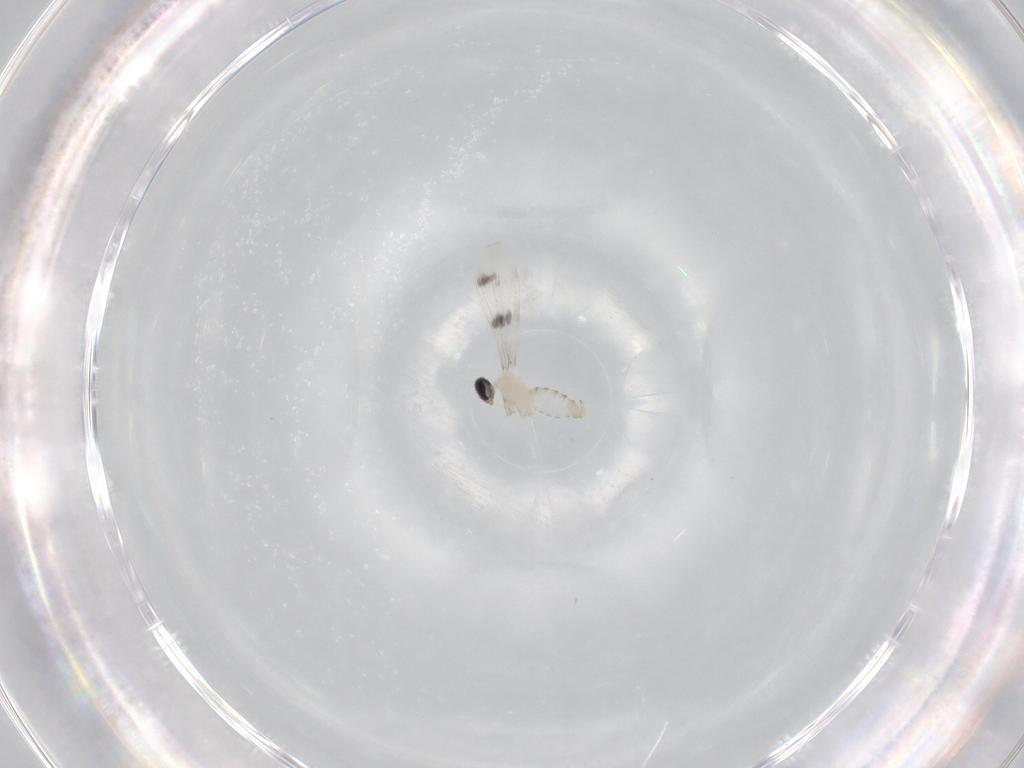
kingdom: Animalia
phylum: Arthropoda
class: Insecta
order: Diptera
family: Cecidomyiidae
